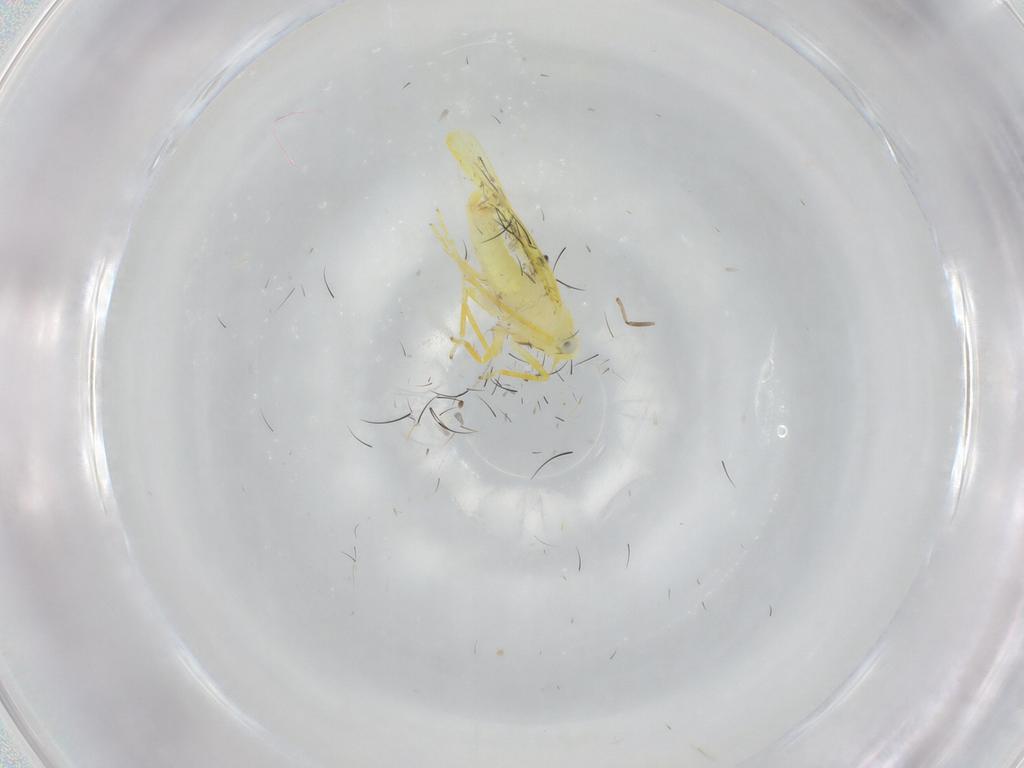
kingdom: Animalia
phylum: Arthropoda
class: Insecta
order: Hemiptera
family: Cicadellidae
